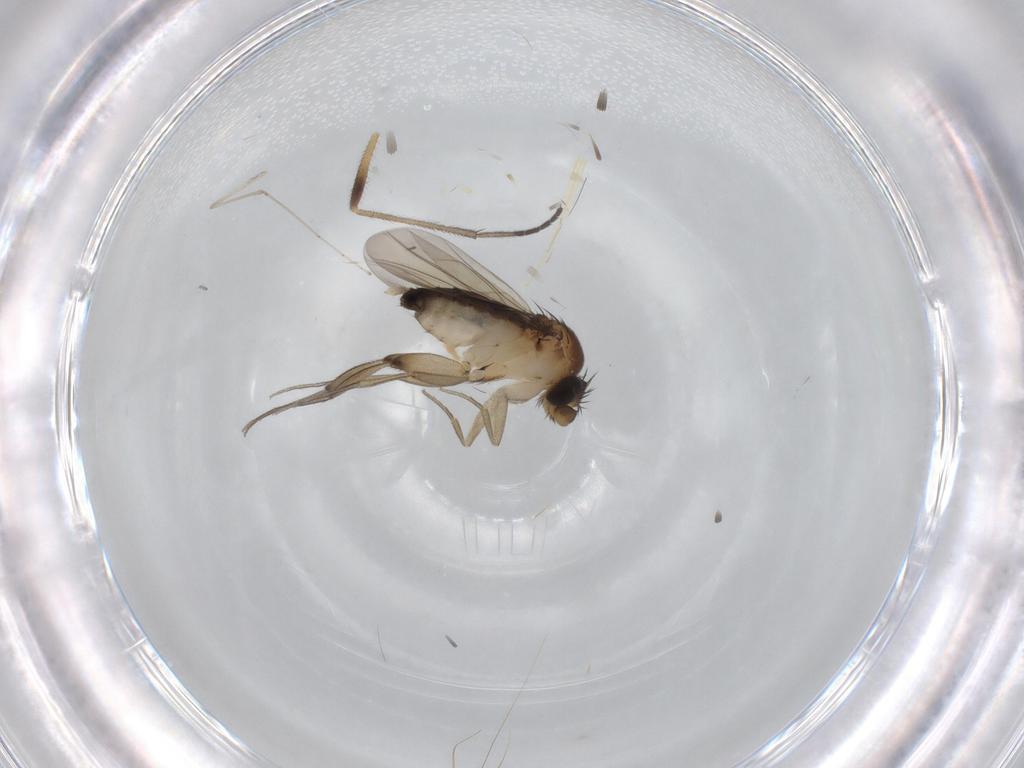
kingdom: Animalia
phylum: Arthropoda
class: Insecta
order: Diptera
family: Phoridae
